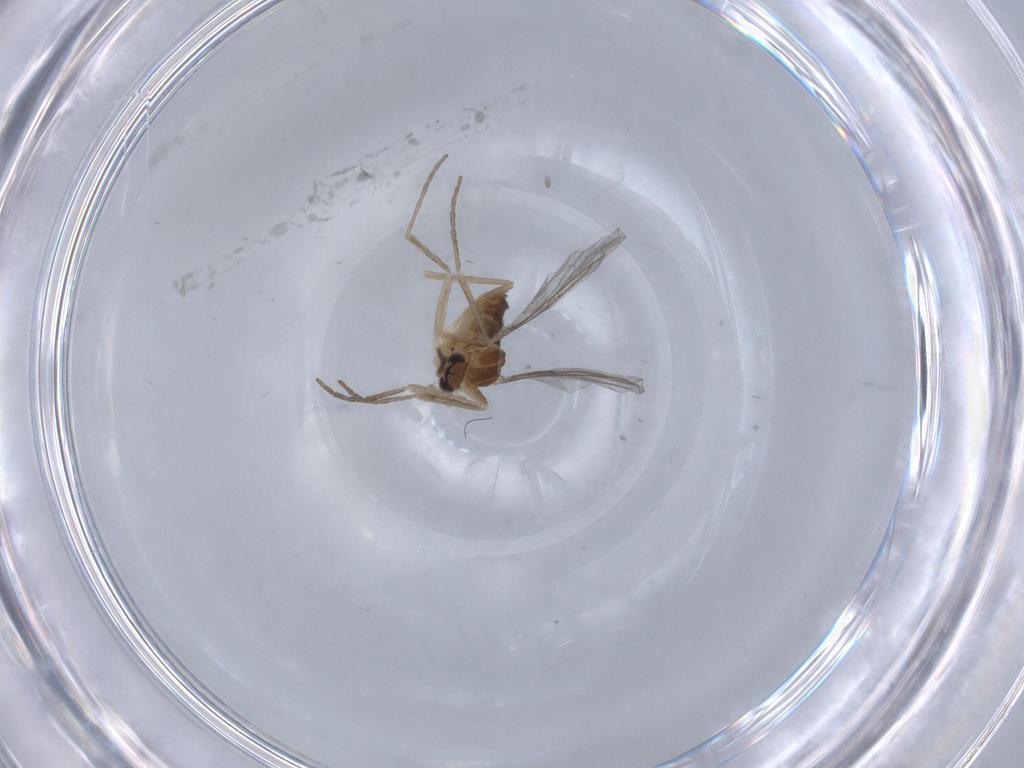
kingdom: Animalia
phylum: Arthropoda
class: Insecta
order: Diptera
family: Cecidomyiidae
